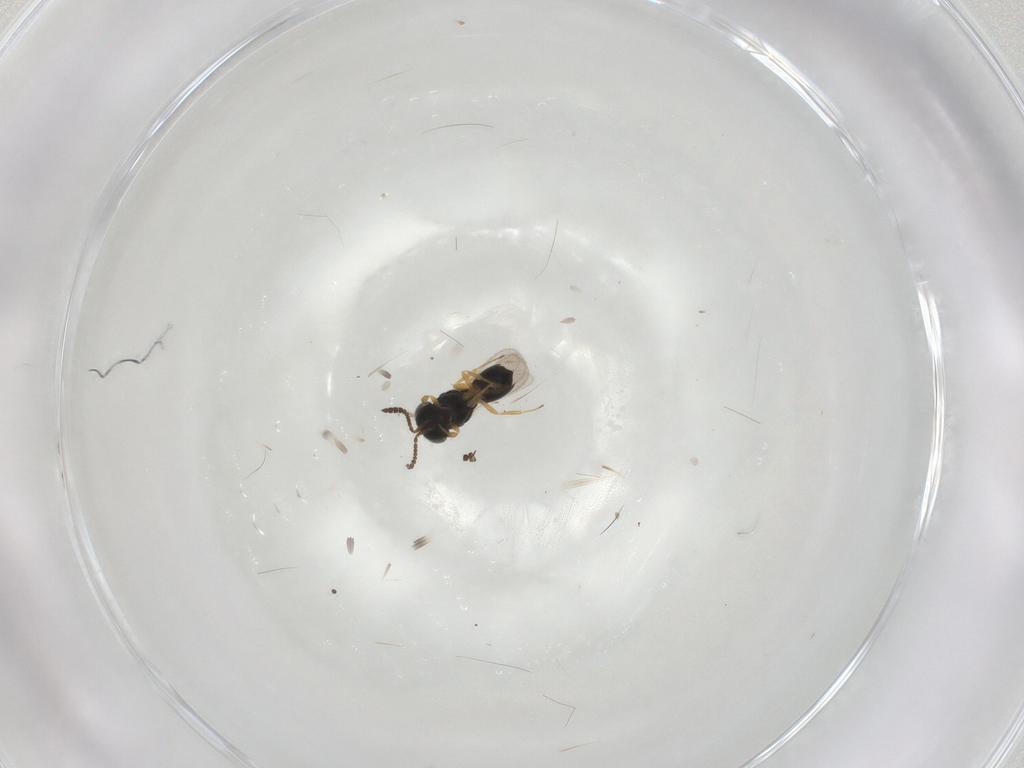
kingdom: Animalia
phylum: Arthropoda
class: Insecta
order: Hymenoptera
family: Scelionidae
